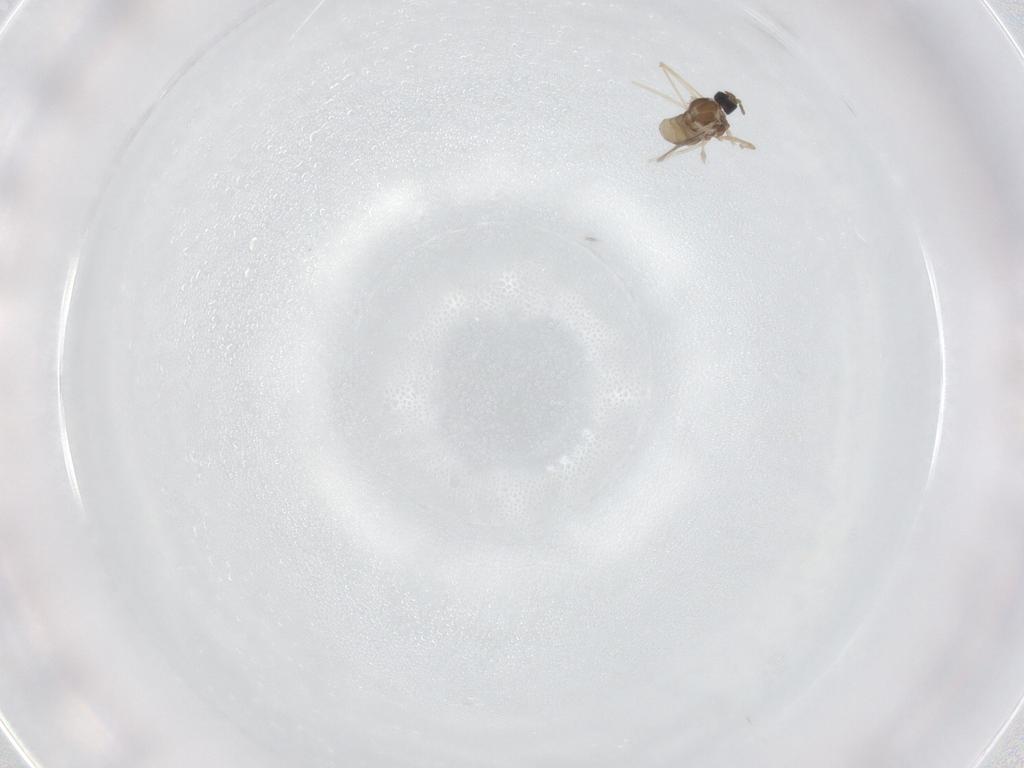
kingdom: Animalia
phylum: Arthropoda
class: Insecta
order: Diptera
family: Cecidomyiidae
